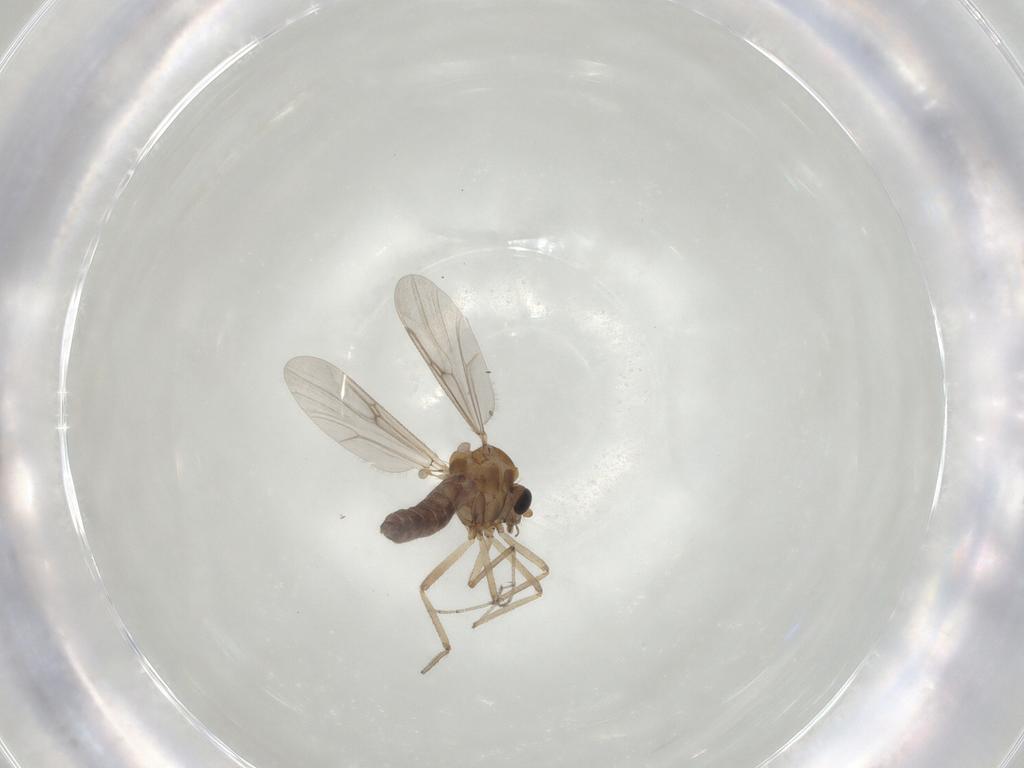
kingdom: Animalia
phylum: Arthropoda
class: Insecta
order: Diptera
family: Ceratopogonidae
